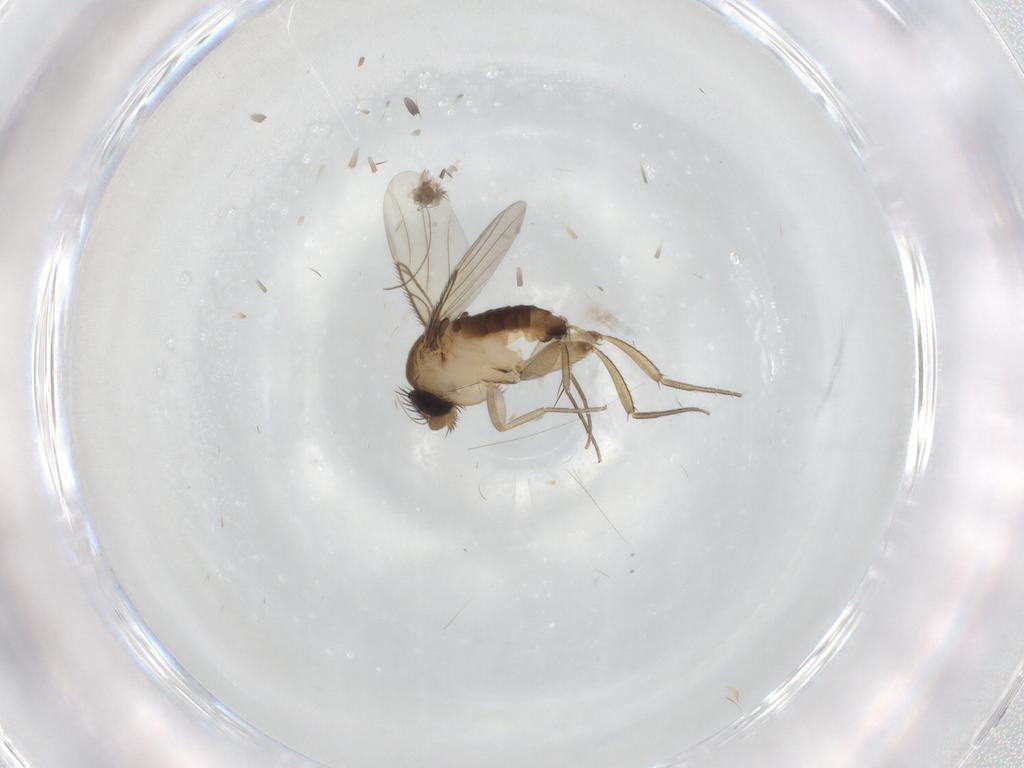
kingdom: Animalia
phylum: Arthropoda
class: Insecta
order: Diptera
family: Phoridae
